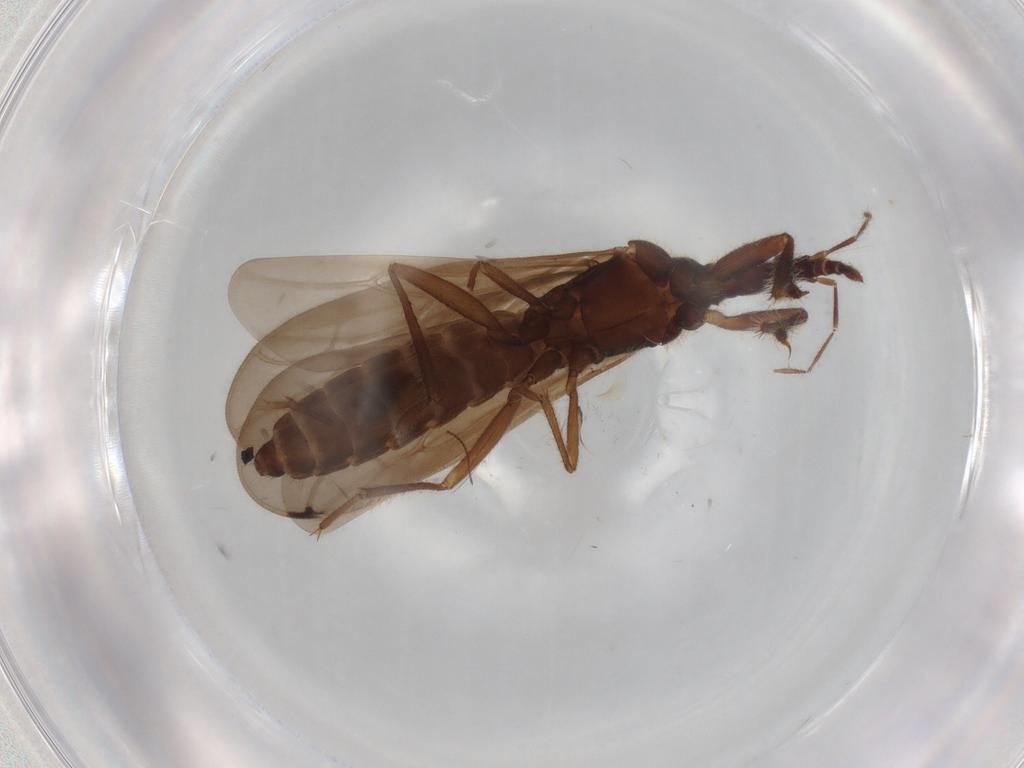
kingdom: Animalia
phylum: Arthropoda
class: Insecta
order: Hemiptera
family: Enicocephalidae
